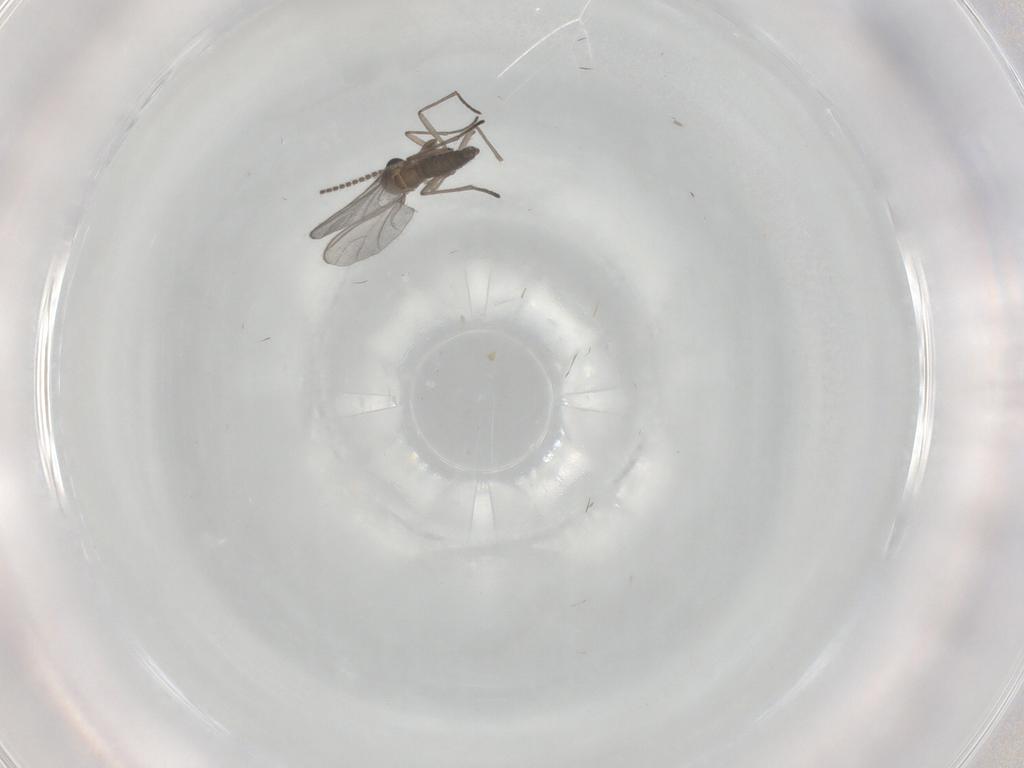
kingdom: Animalia
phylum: Arthropoda
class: Insecta
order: Diptera
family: Sciaridae
